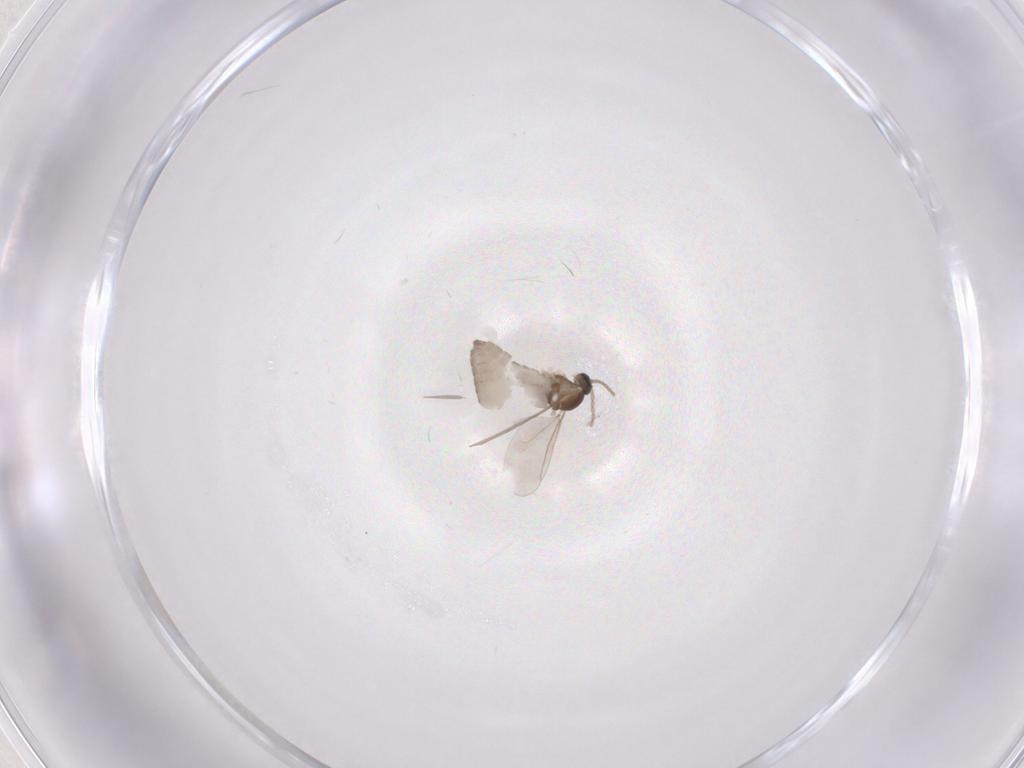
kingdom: Animalia
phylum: Arthropoda
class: Insecta
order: Diptera
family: Cecidomyiidae
